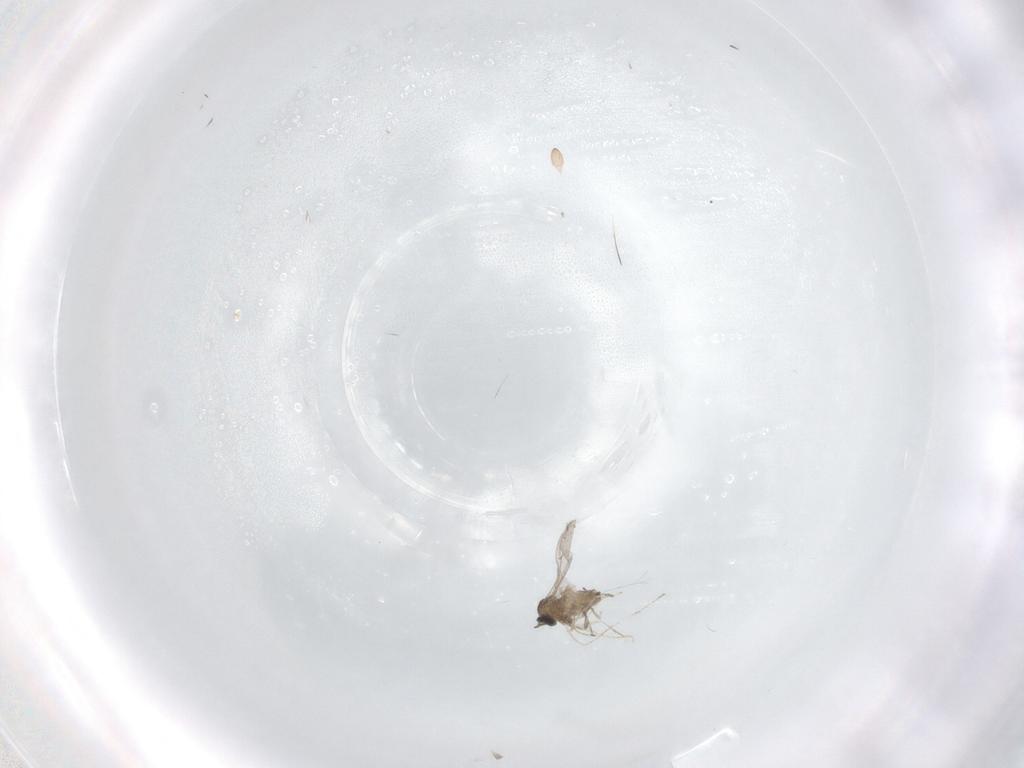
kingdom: Animalia
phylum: Arthropoda
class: Insecta
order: Diptera
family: Cecidomyiidae
